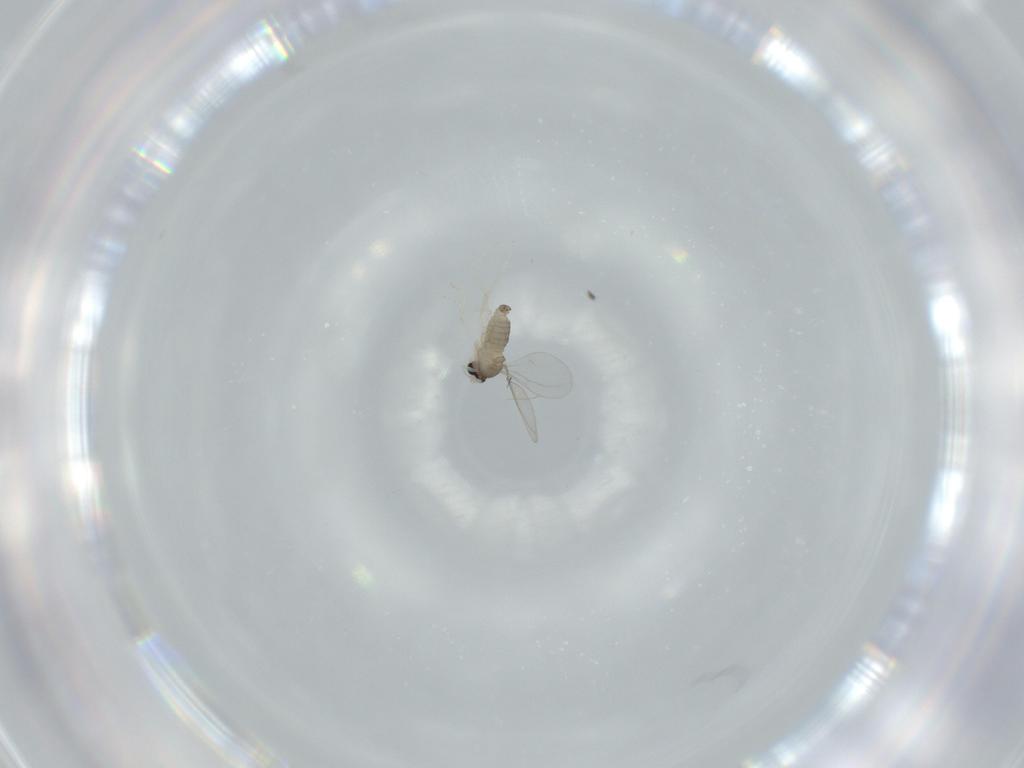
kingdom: Animalia
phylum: Arthropoda
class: Insecta
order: Diptera
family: Cecidomyiidae
